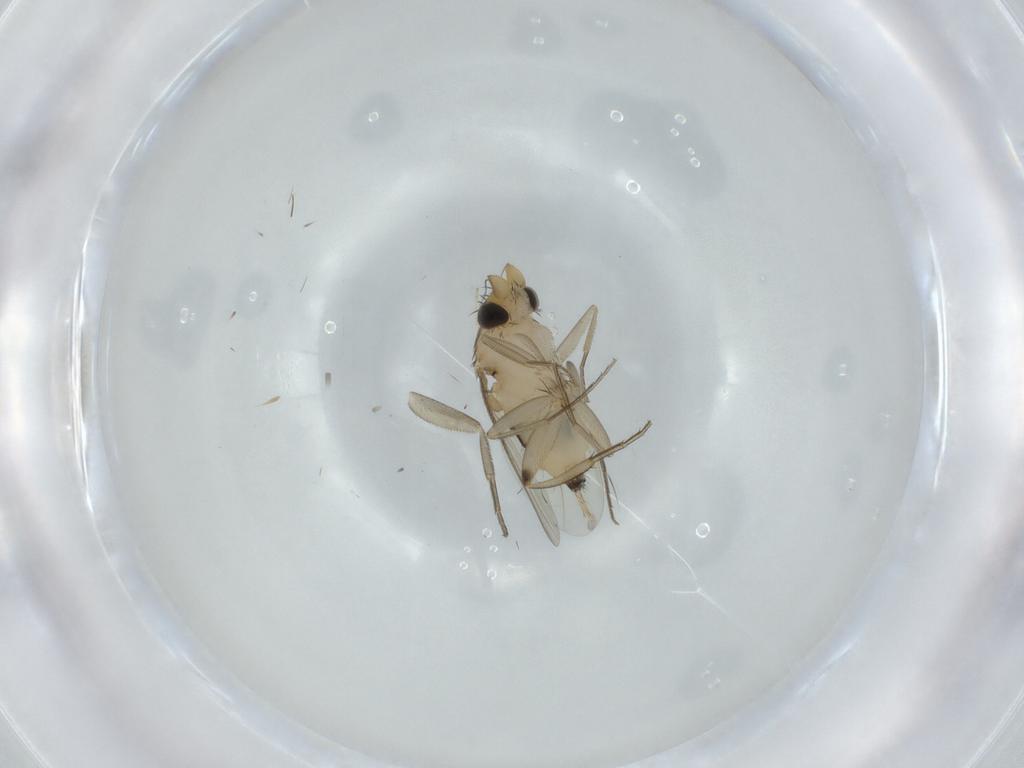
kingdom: Animalia
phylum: Arthropoda
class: Insecta
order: Diptera
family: Phoridae
